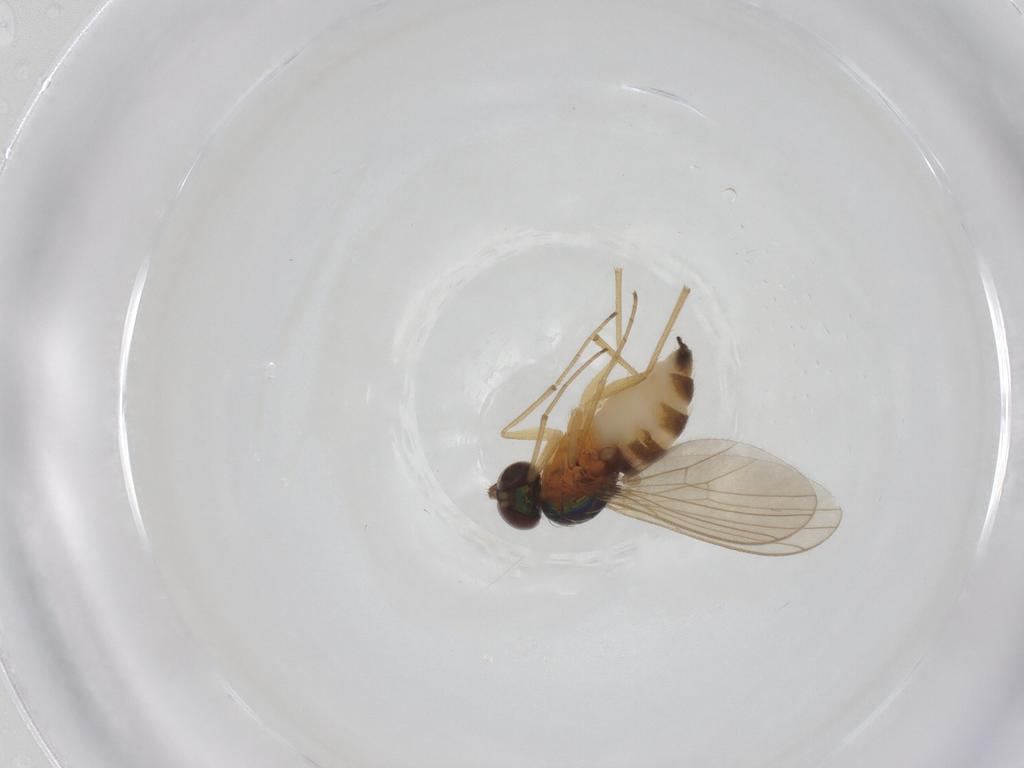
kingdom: Animalia
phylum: Arthropoda
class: Insecta
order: Diptera
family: Dolichopodidae
